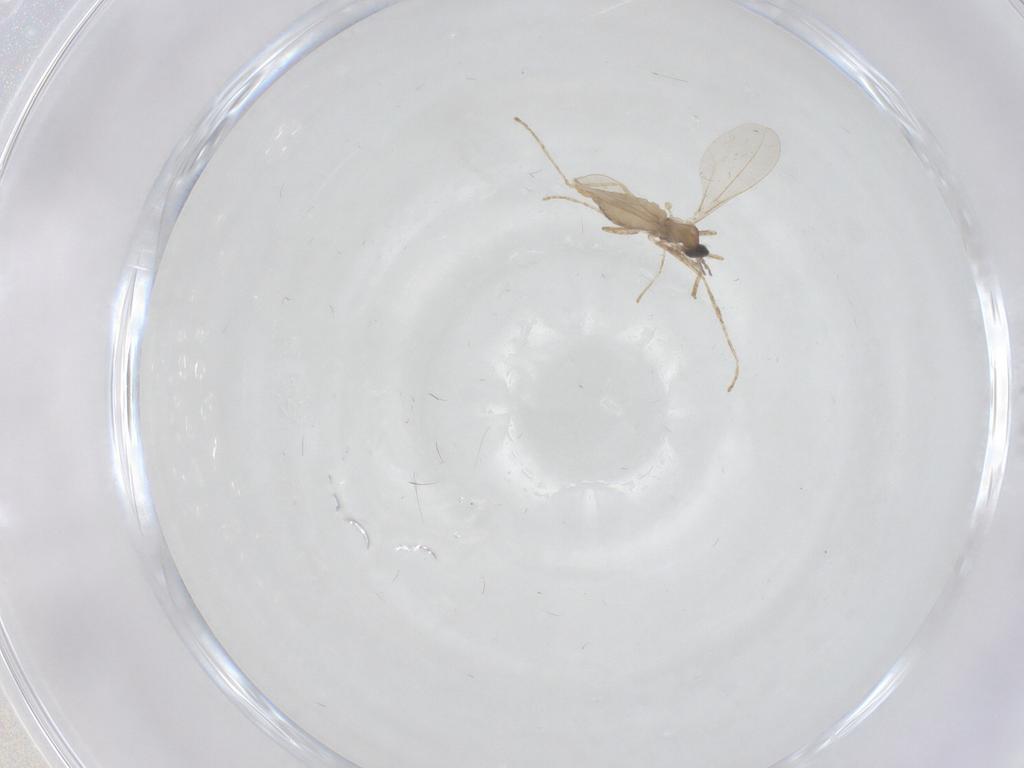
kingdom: Animalia
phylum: Arthropoda
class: Insecta
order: Diptera
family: Cecidomyiidae
